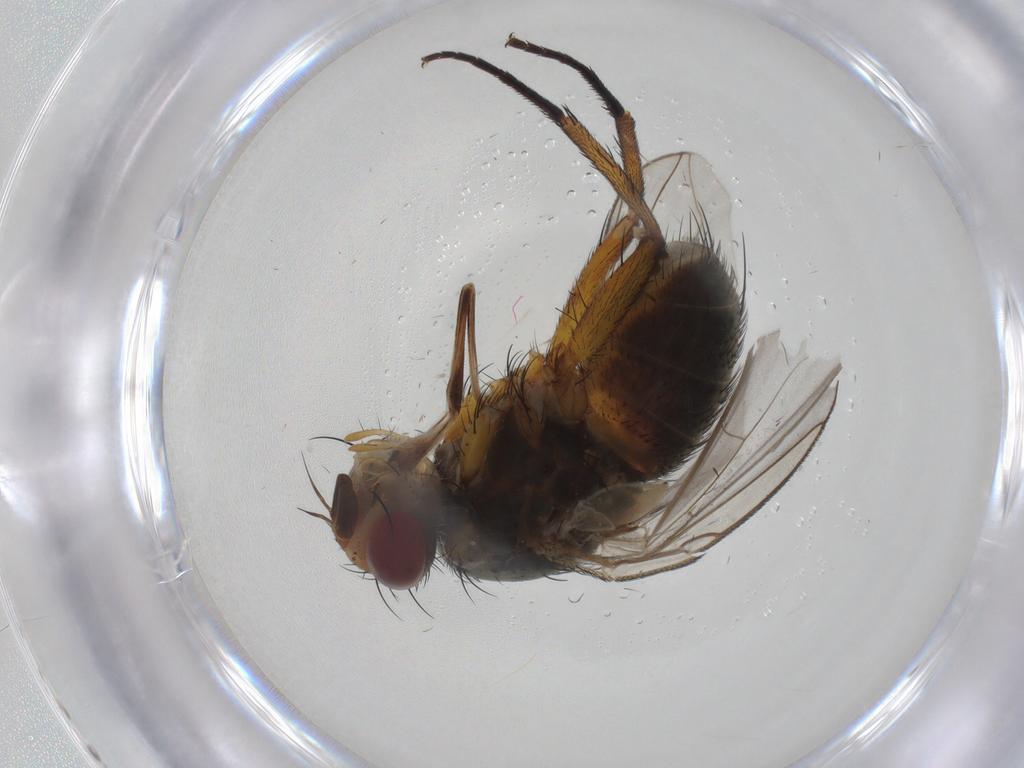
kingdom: Animalia
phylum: Arthropoda
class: Insecta
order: Diptera
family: Tachinidae
